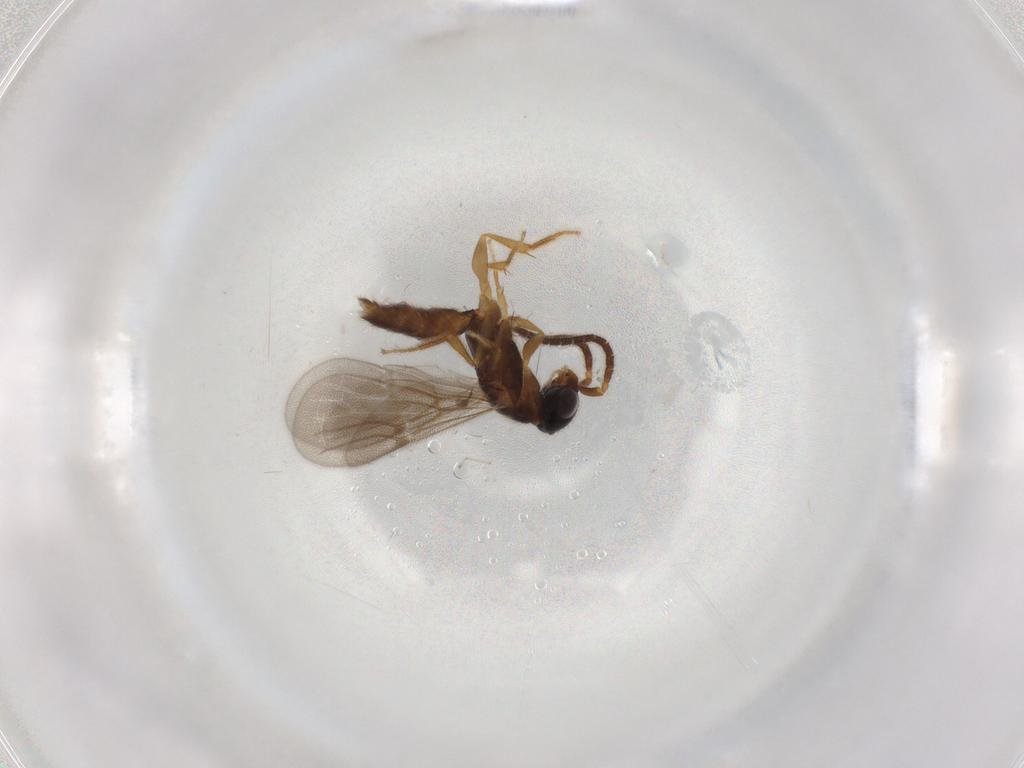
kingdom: Animalia
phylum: Arthropoda
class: Insecta
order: Hymenoptera
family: Bethylidae
